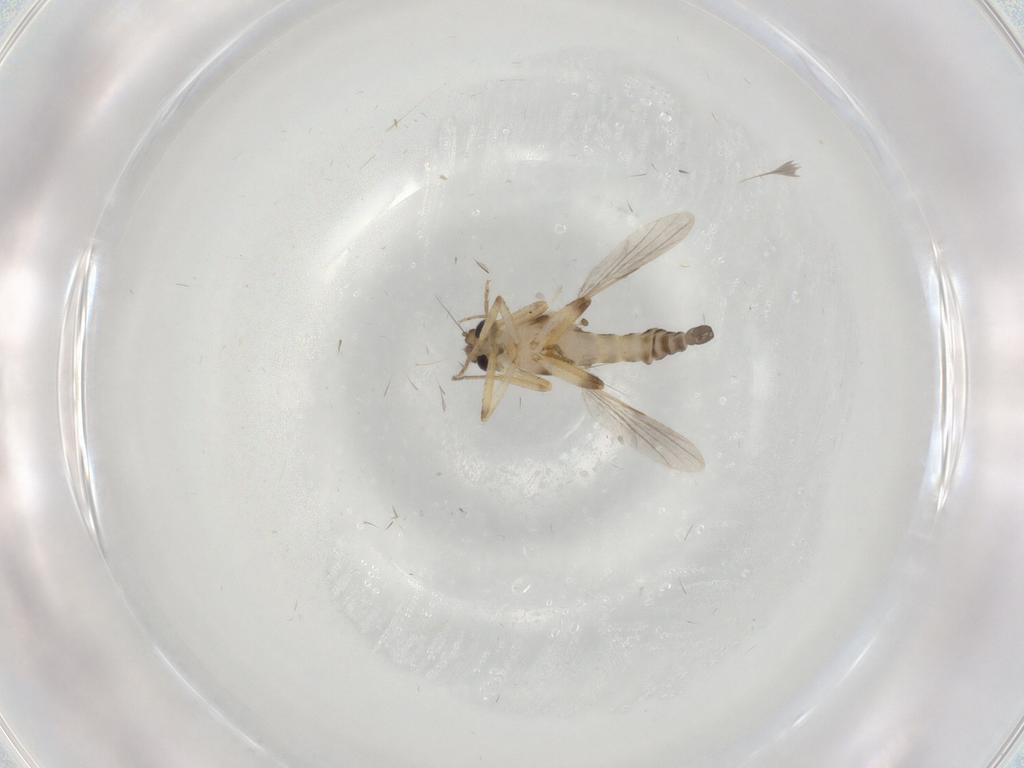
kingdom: Animalia
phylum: Arthropoda
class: Insecta
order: Diptera
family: Ceratopogonidae
